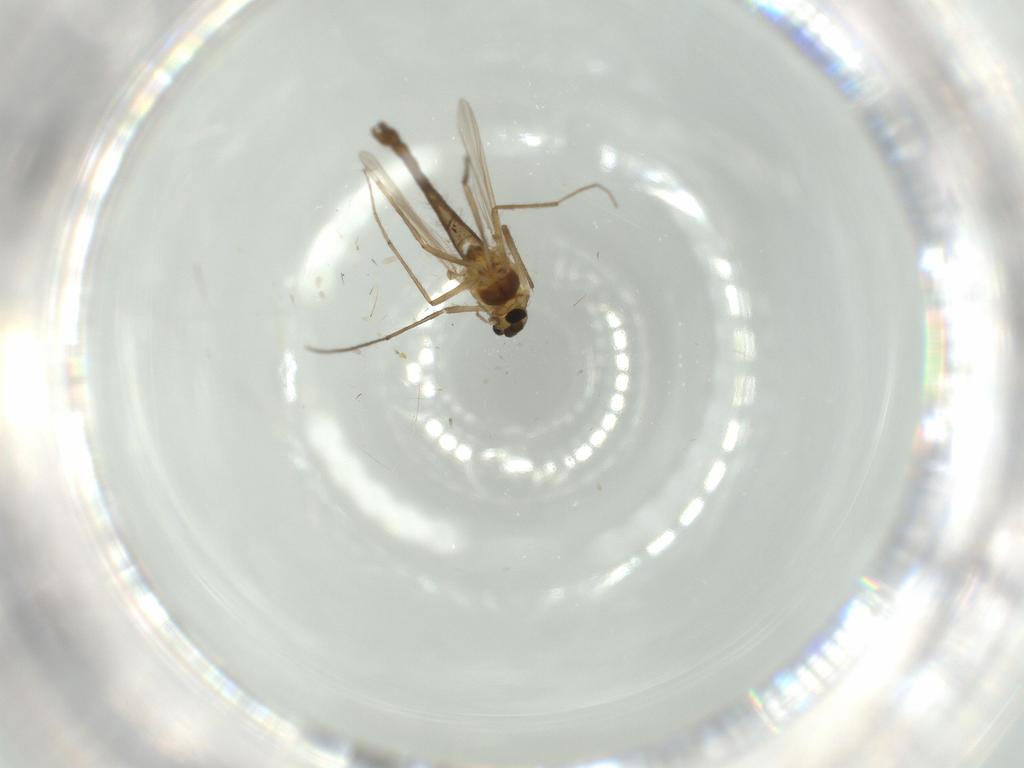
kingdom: Animalia
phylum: Arthropoda
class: Insecta
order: Diptera
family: Chironomidae
